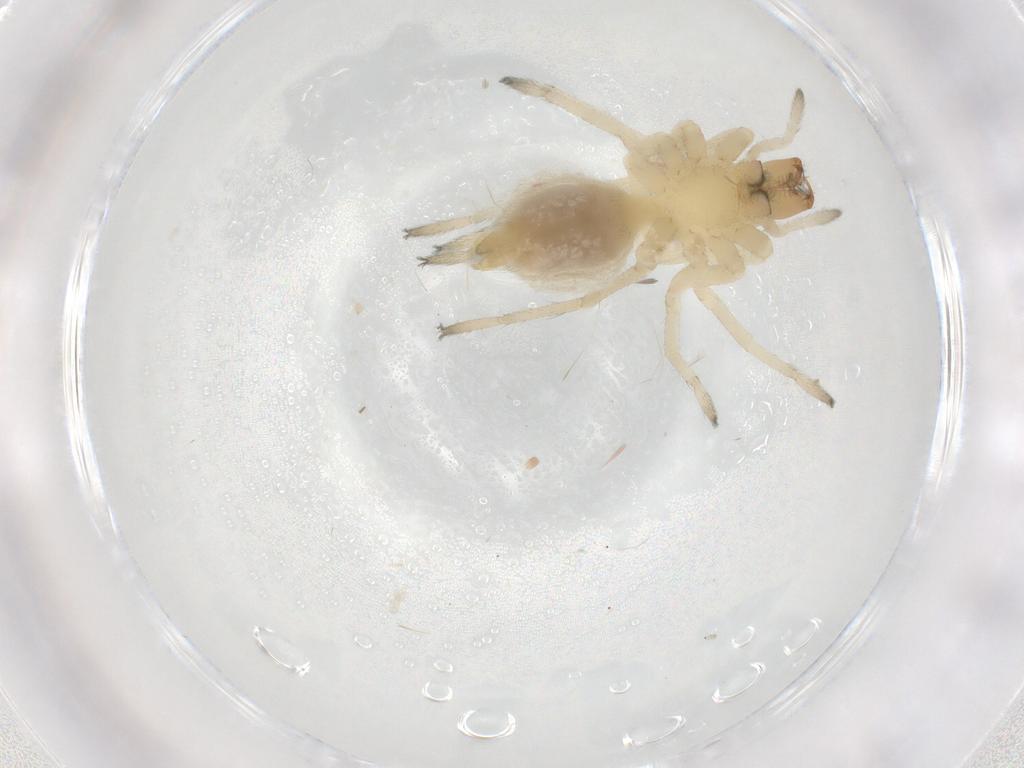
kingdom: Animalia
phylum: Arthropoda
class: Arachnida
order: Araneae
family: Cheiracanthiidae
